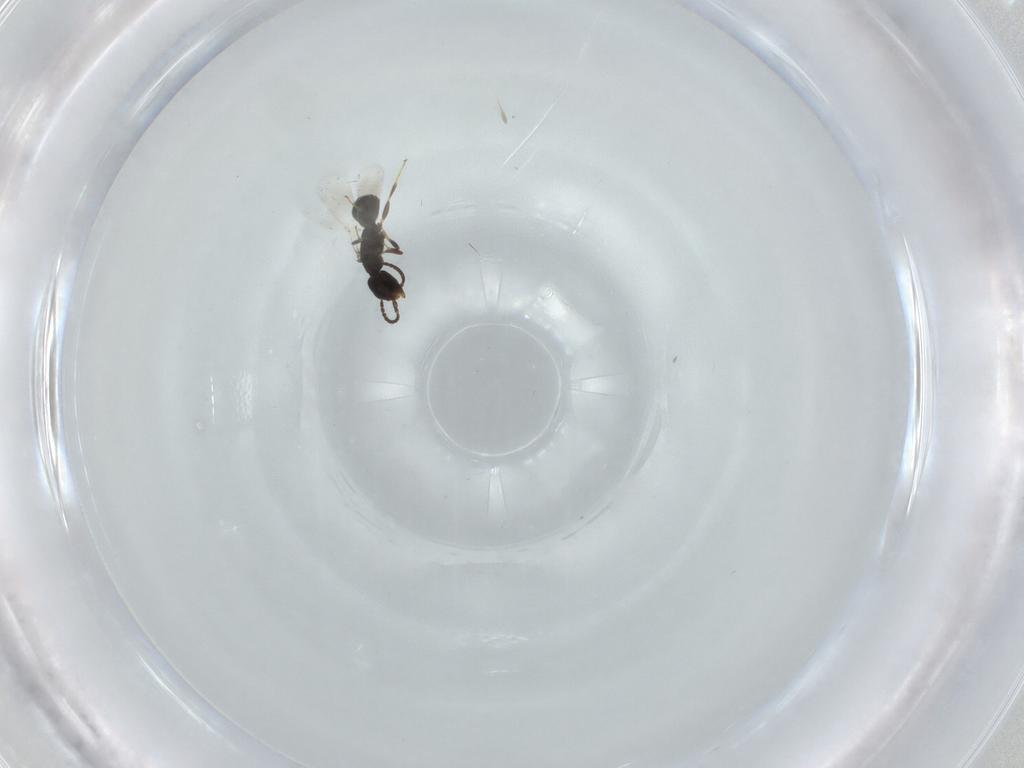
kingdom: Animalia
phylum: Arthropoda
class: Insecta
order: Hymenoptera
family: Bethylidae
